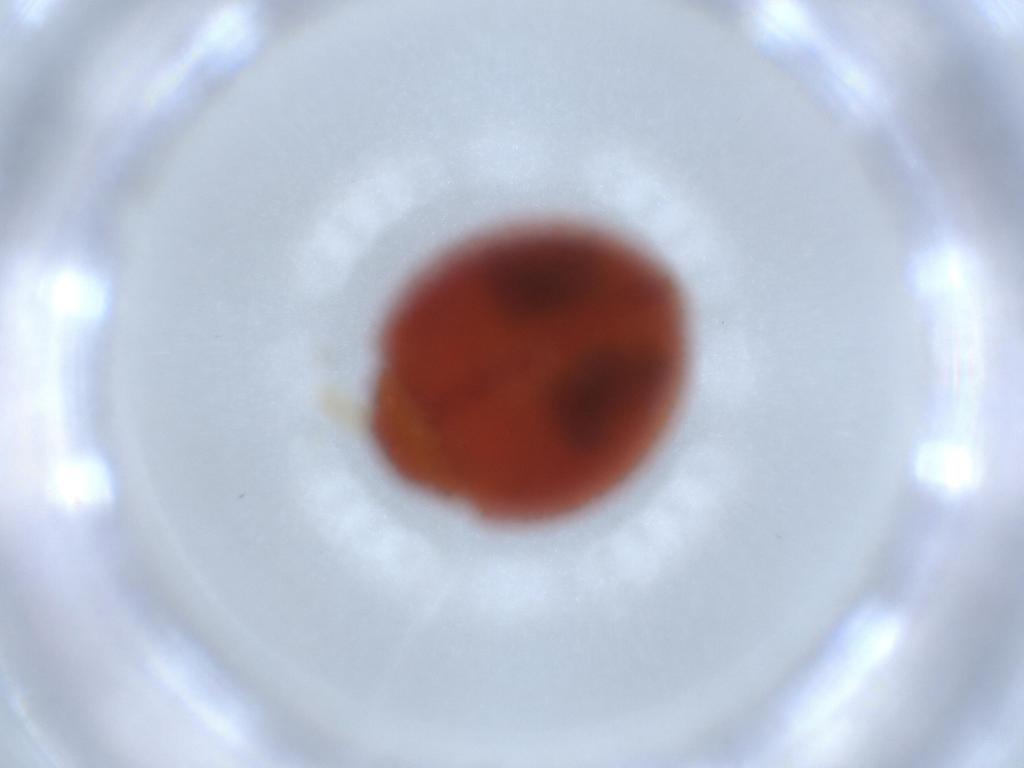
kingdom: Animalia
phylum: Arthropoda
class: Insecta
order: Coleoptera
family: Coccinellidae
